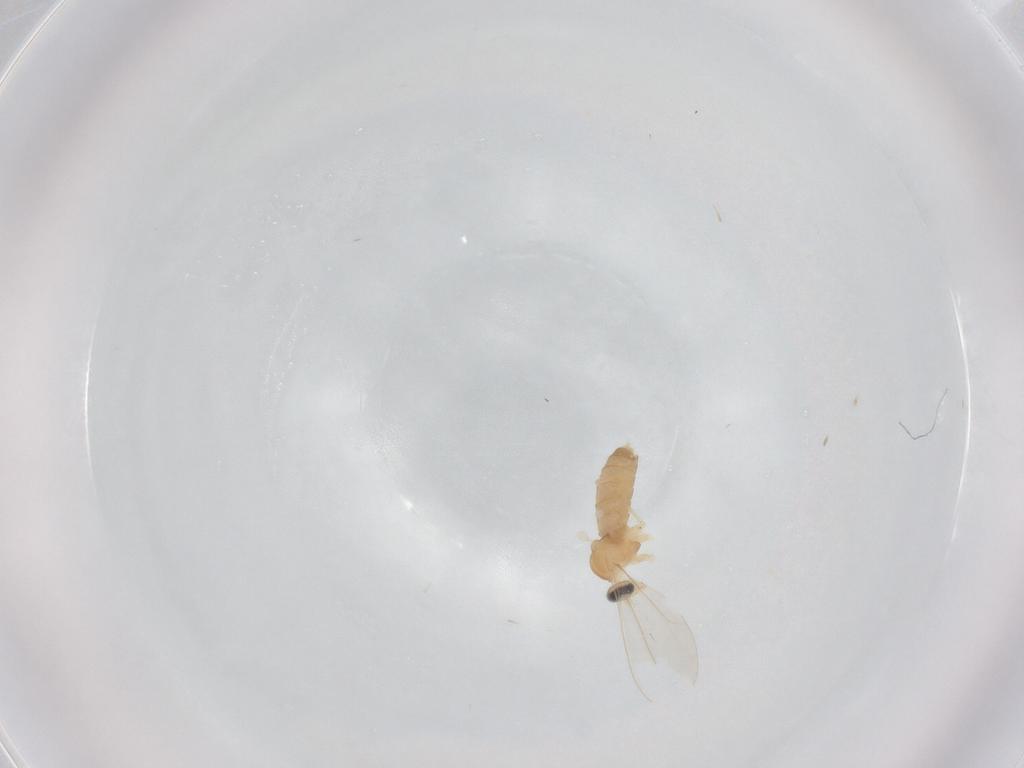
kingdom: Animalia
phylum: Arthropoda
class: Insecta
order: Diptera
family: Cecidomyiidae
